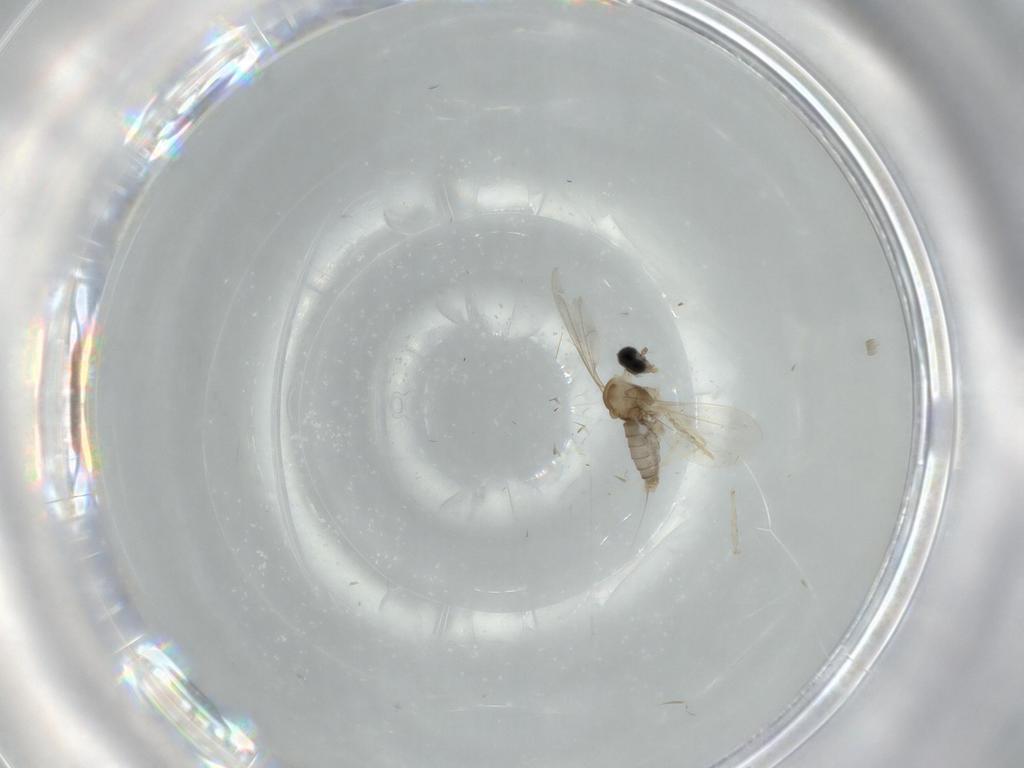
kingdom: Animalia
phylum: Arthropoda
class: Insecta
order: Diptera
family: Cecidomyiidae
